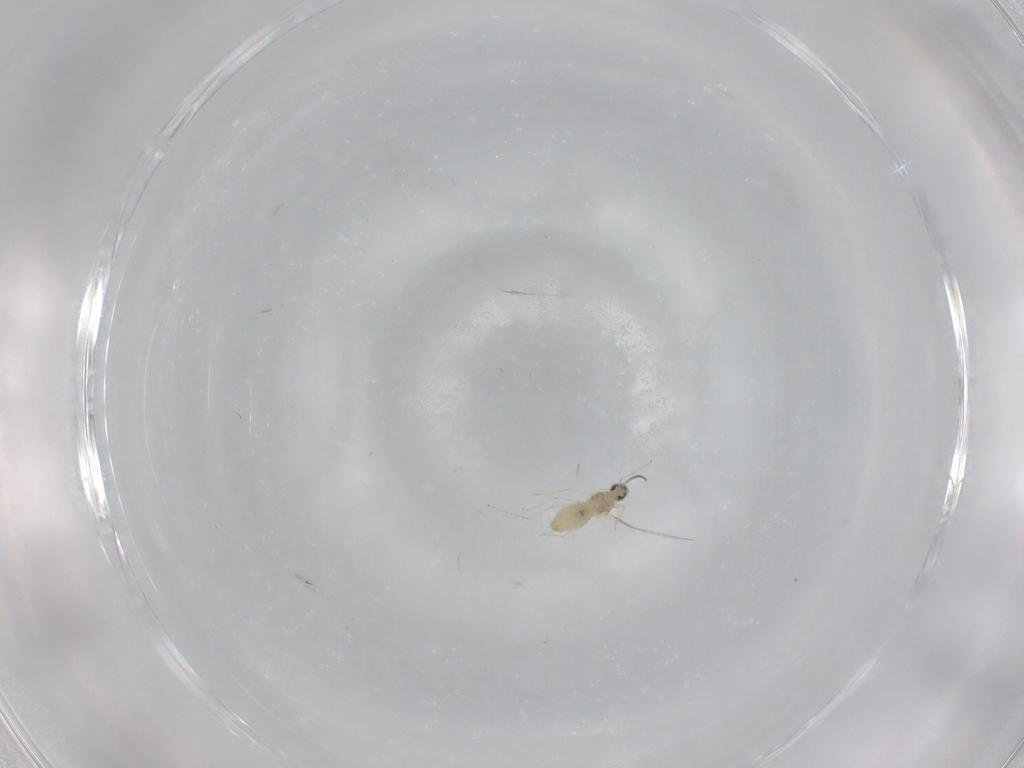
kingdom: Animalia
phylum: Arthropoda
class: Insecta
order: Diptera
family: Cecidomyiidae
